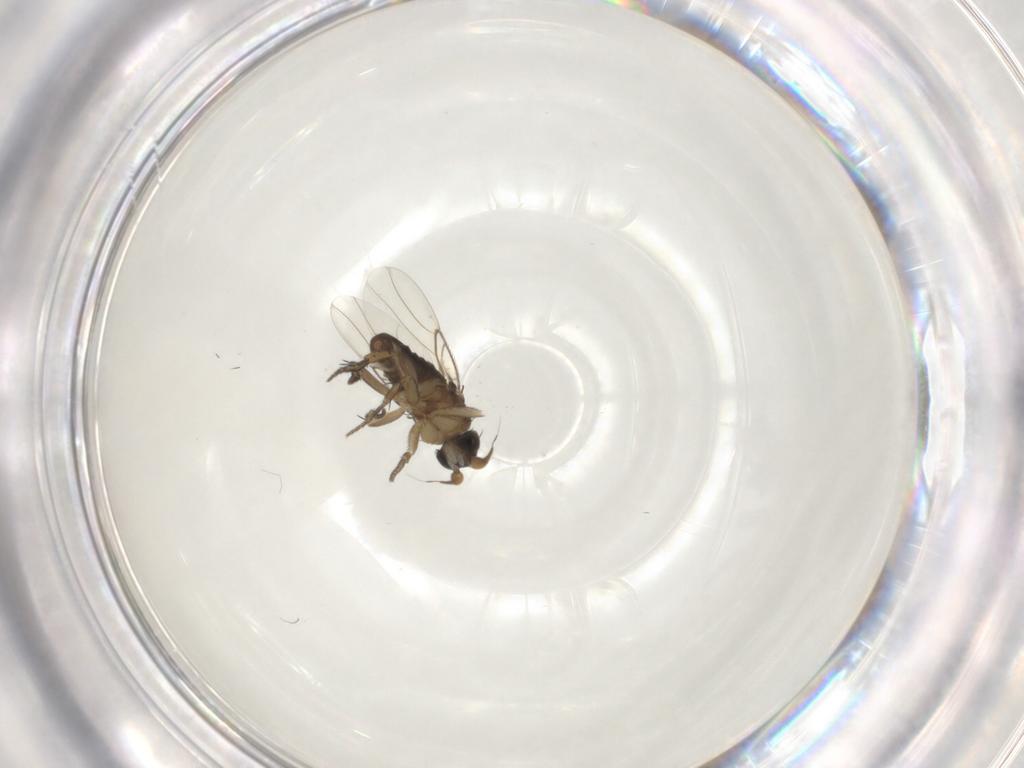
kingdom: Animalia
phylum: Arthropoda
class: Insecta
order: Diptera
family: Phoridae
